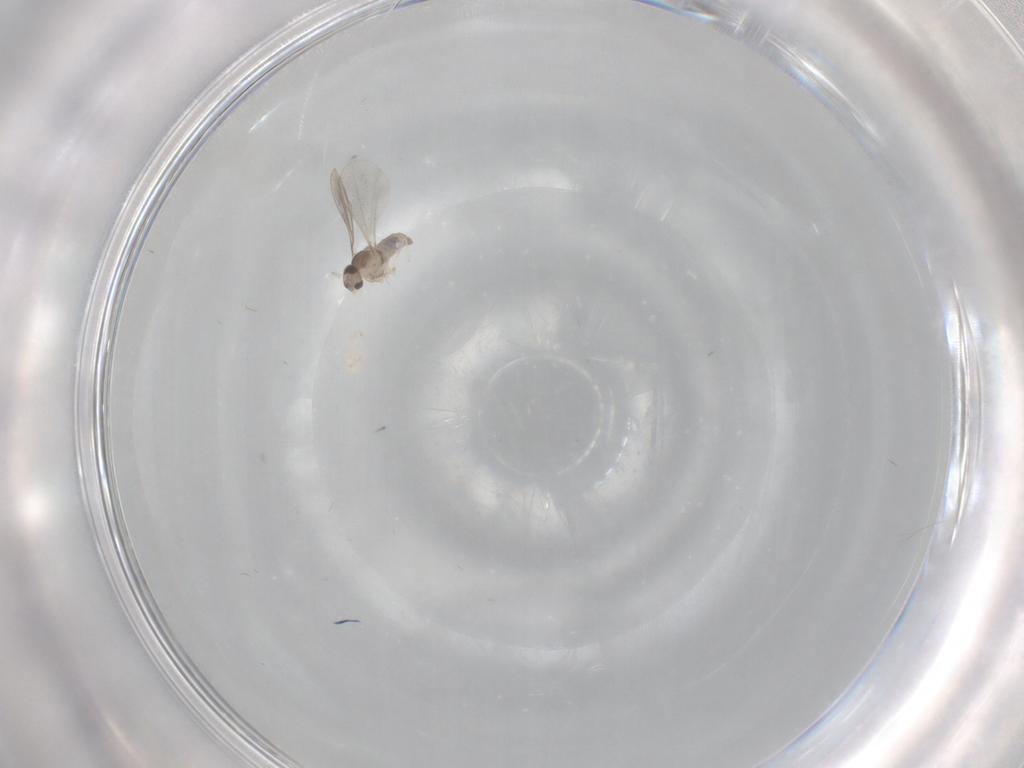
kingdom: Animalia
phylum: Arthropoda
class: Insecta
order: Diptera
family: Cecidomyiidae
